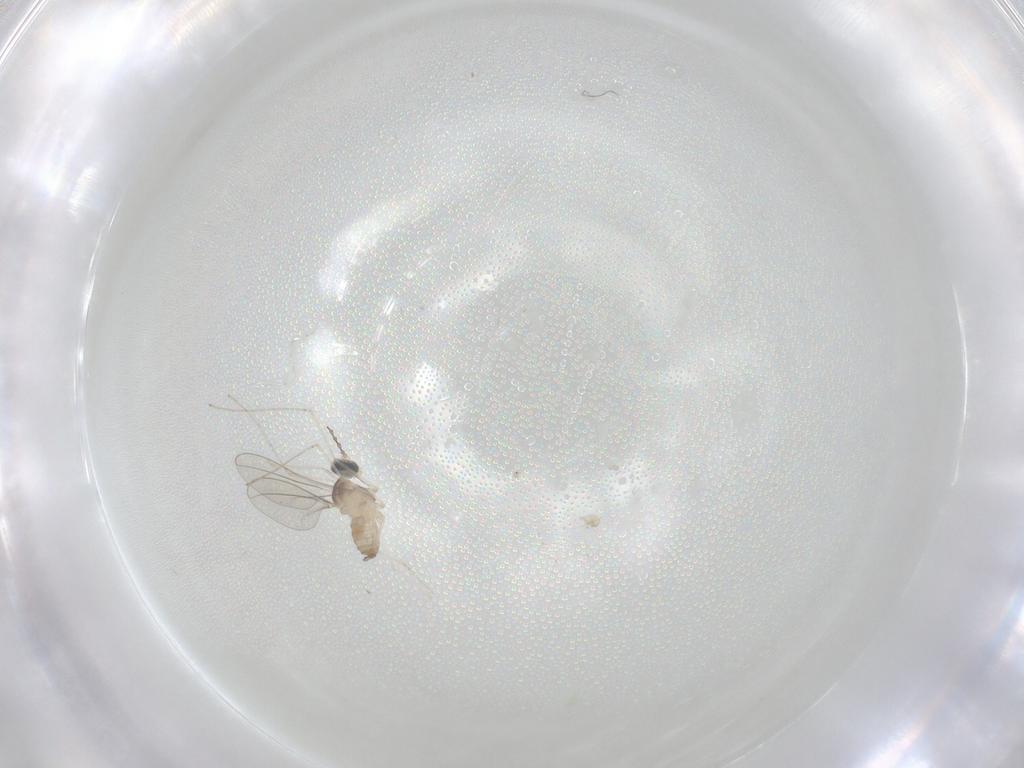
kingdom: Animalia
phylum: Arthropoda
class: Insecta
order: Diptera
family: Cecidomyiidae
